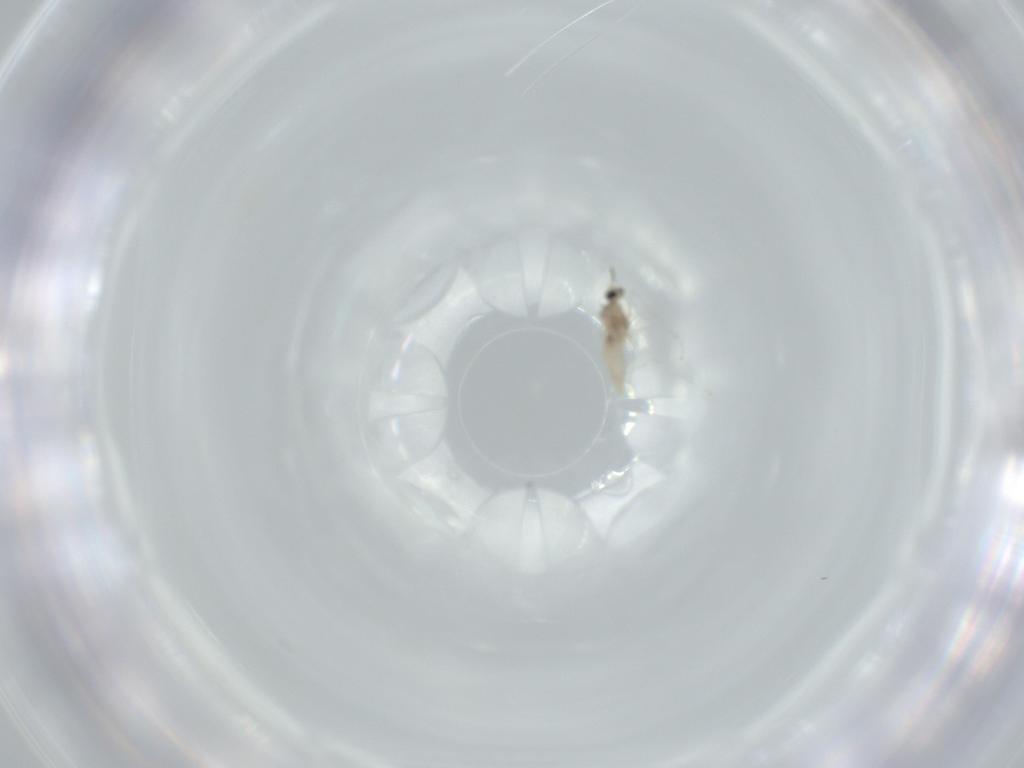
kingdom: Animalia
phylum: Arthropoda
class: Insecta
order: Diptera
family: Cecidomyiidae
